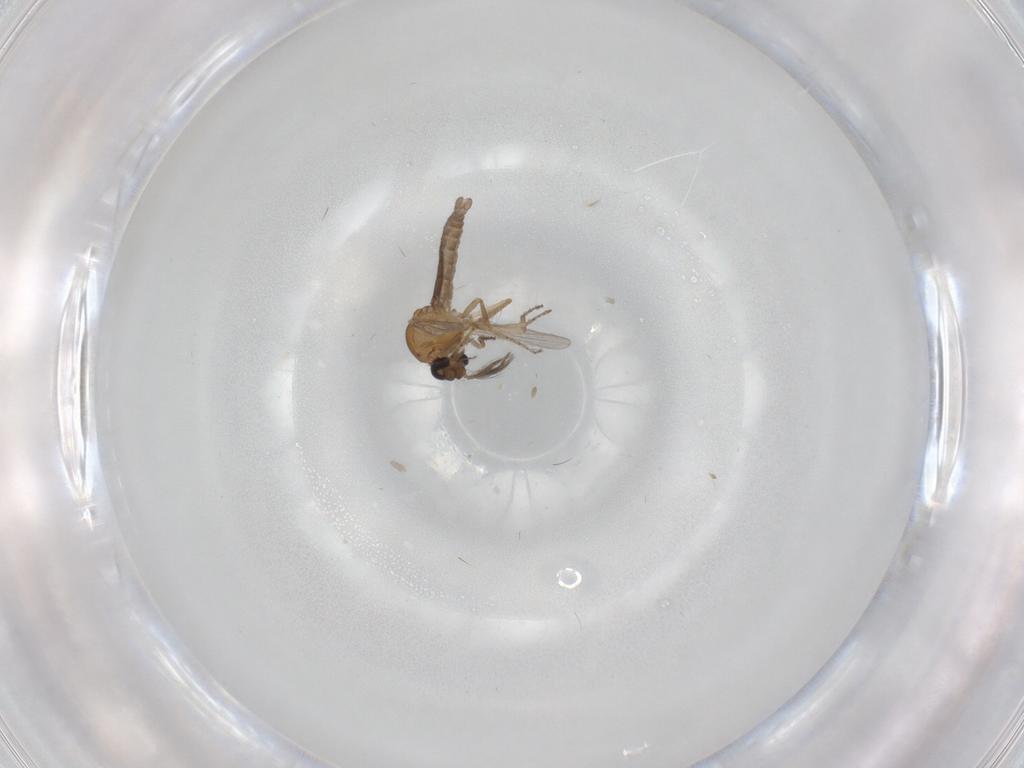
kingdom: Animalia
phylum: Arthropoda
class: Insecta
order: Diptera
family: Ceratopogonidae
